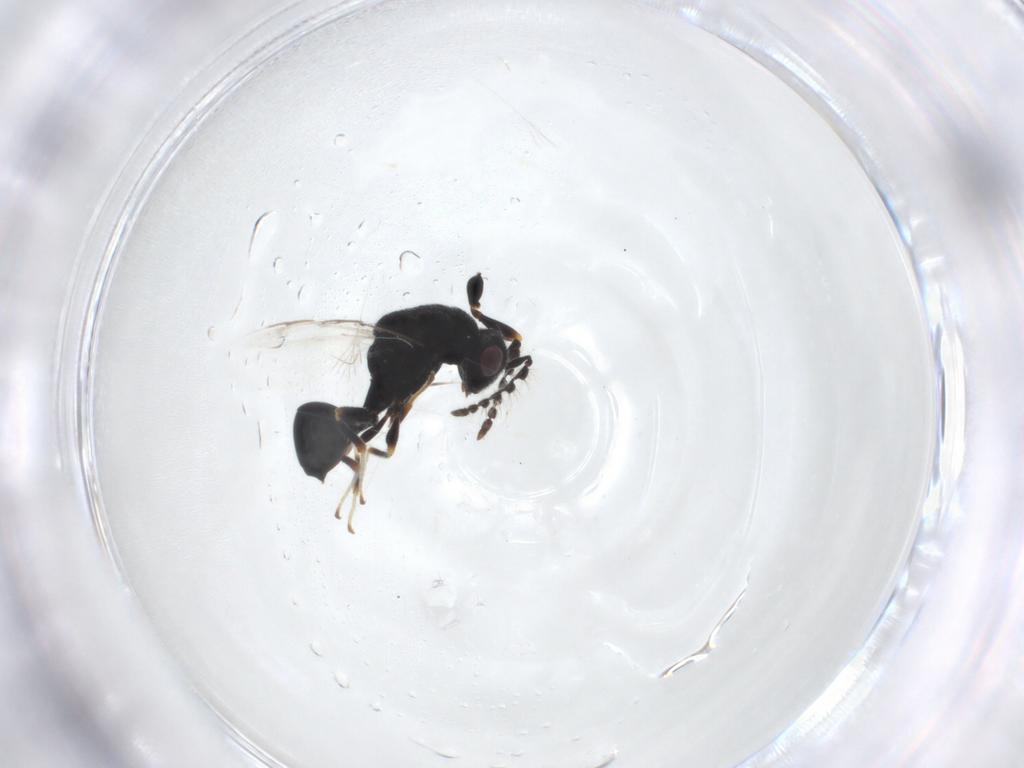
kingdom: Animalia
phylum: Arthropoda
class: Insecta
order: Hymenoptera
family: Eurytomidae
